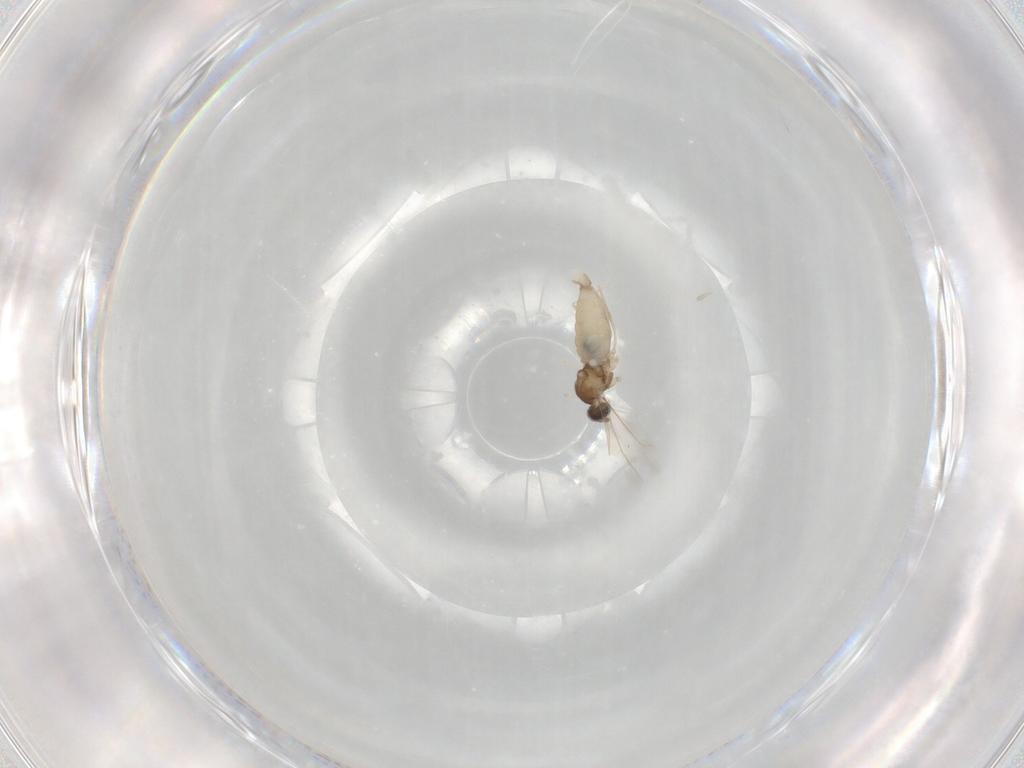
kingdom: Animalia
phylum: Arthropoda
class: Insecta
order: Diptera
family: Cecidomyiidae
